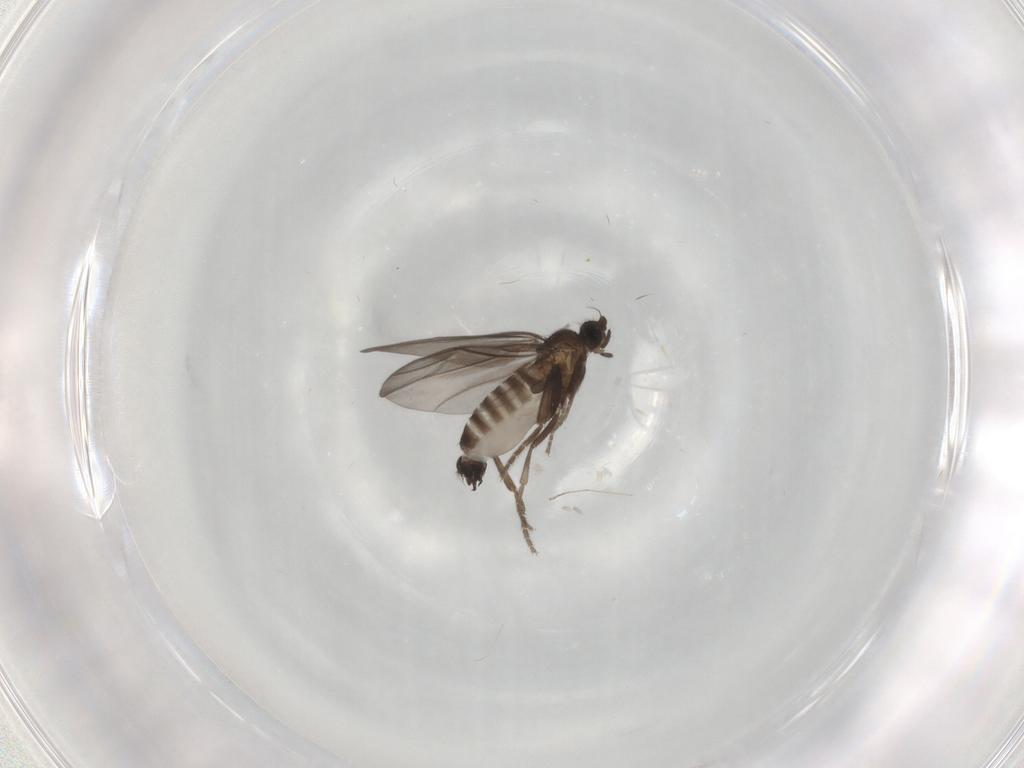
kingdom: Animalia
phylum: Arthropoda
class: Insecta
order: Diptera
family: Phoridae
